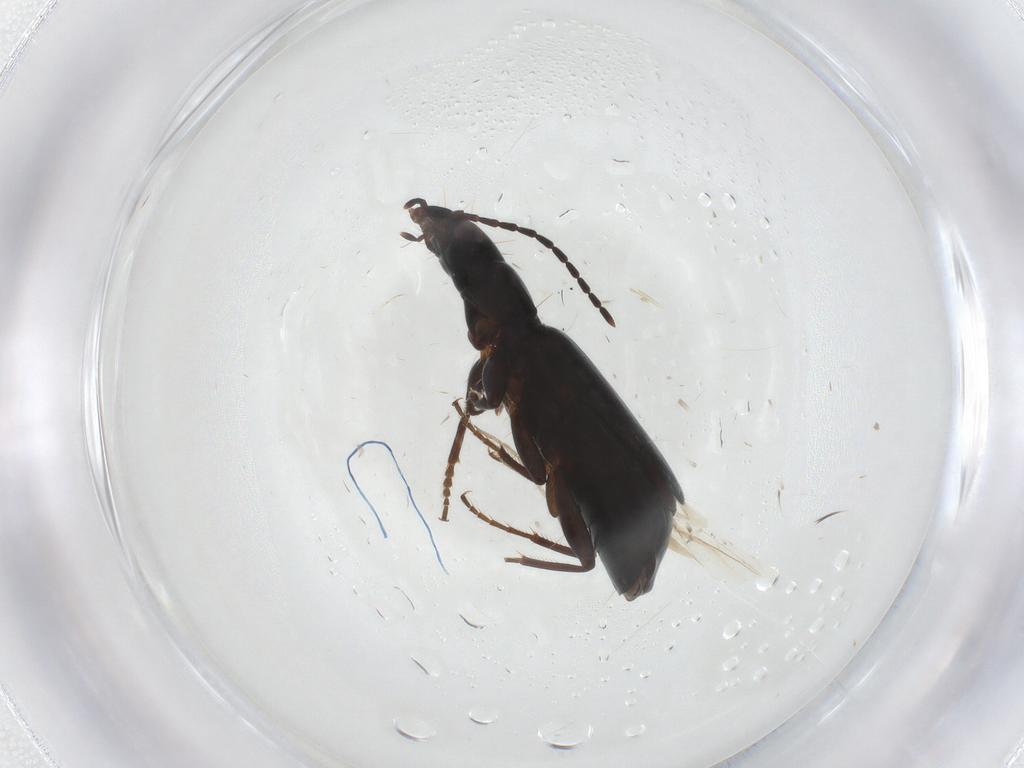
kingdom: Animalia
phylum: Arthropoda
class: Insecta
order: Coleoptera
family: Carabidae
